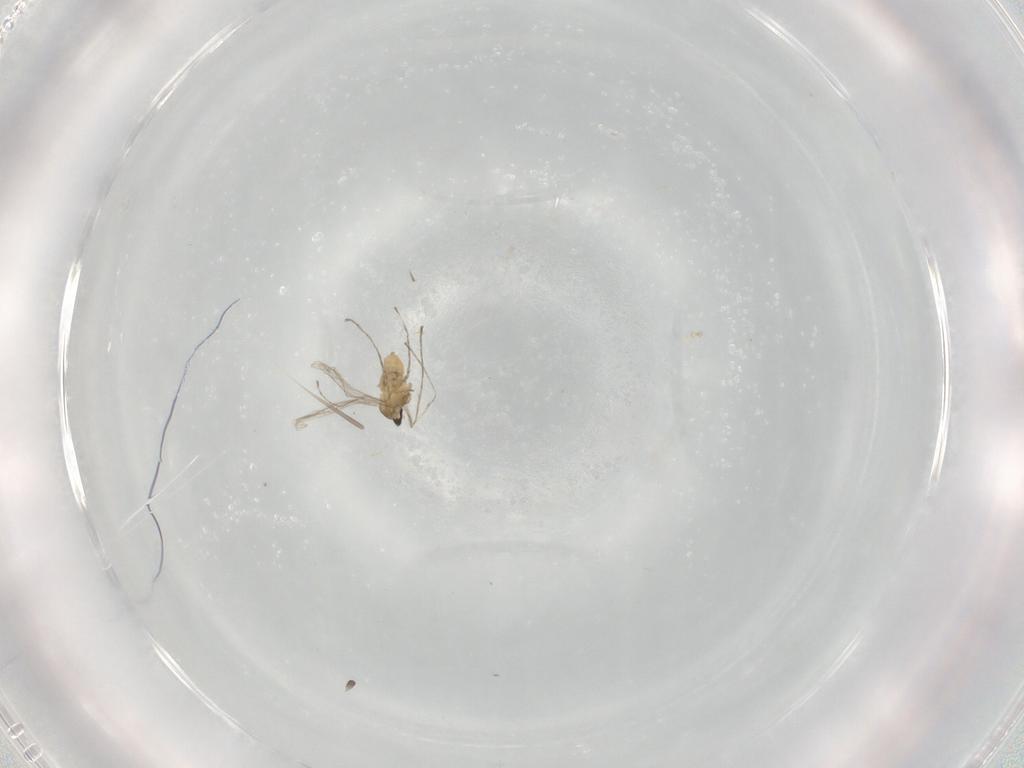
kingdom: Animalia
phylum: Arthropoda
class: Insecta
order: Diptera
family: Cecidomyiidae
